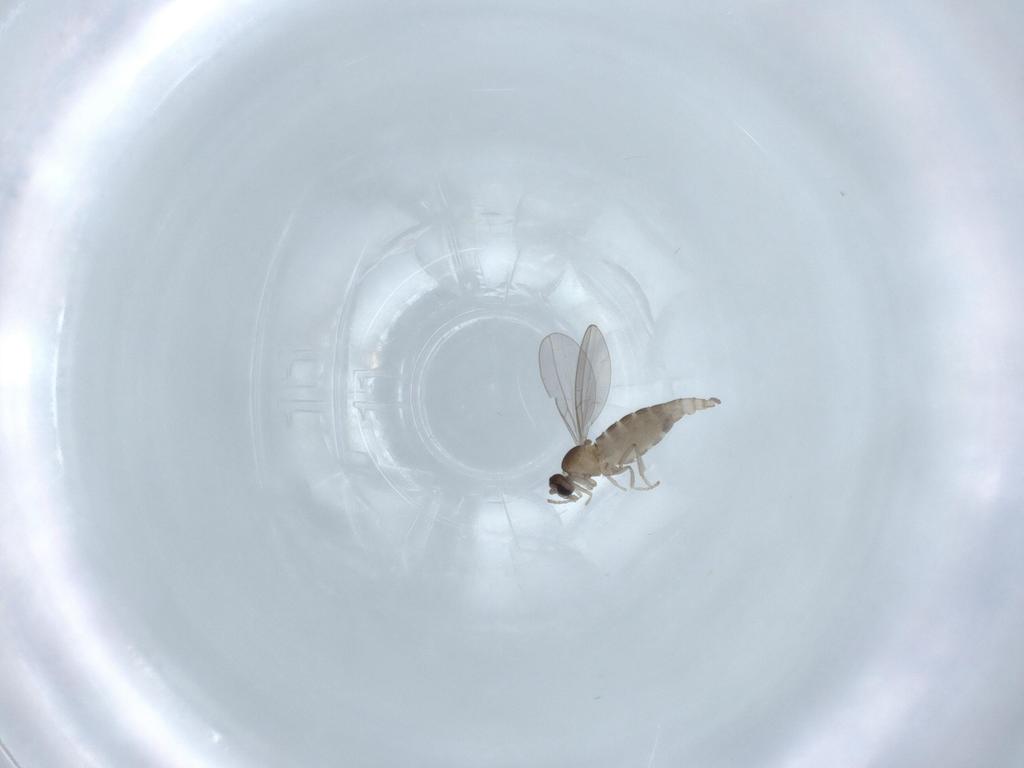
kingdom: Animalia
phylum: Arthropoda
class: Insecta
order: Diptera
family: Cecidomyiidae
